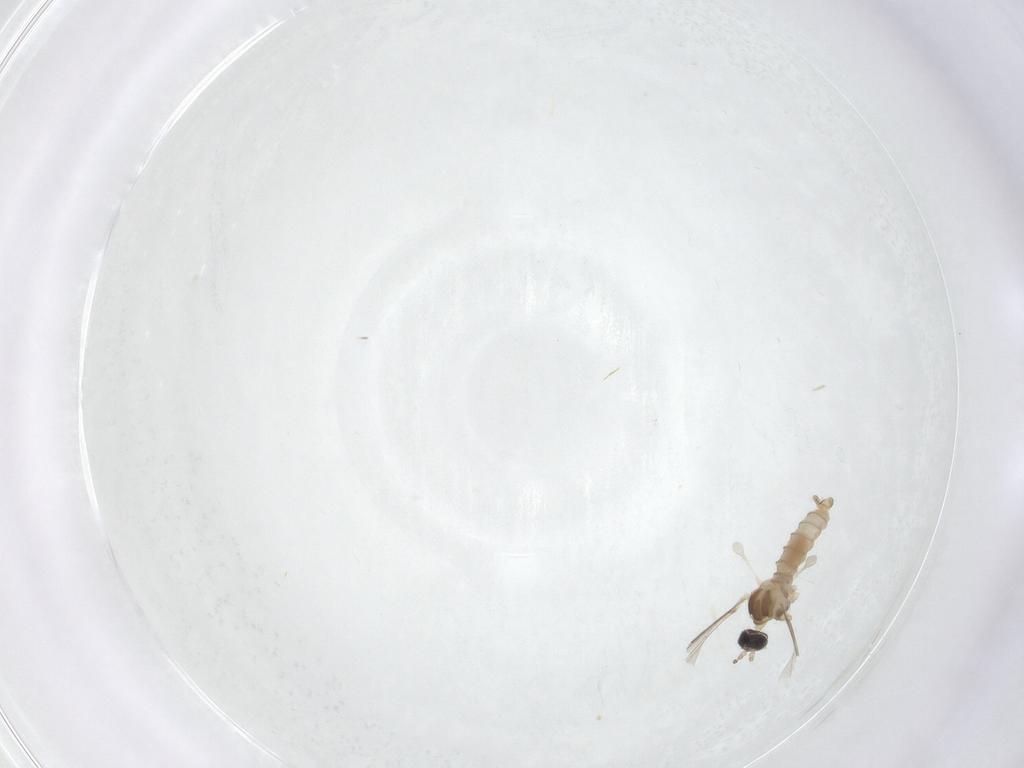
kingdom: Animalia
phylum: Arthropoda
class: Insecta
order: Diptera
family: Cecidomyiidae
